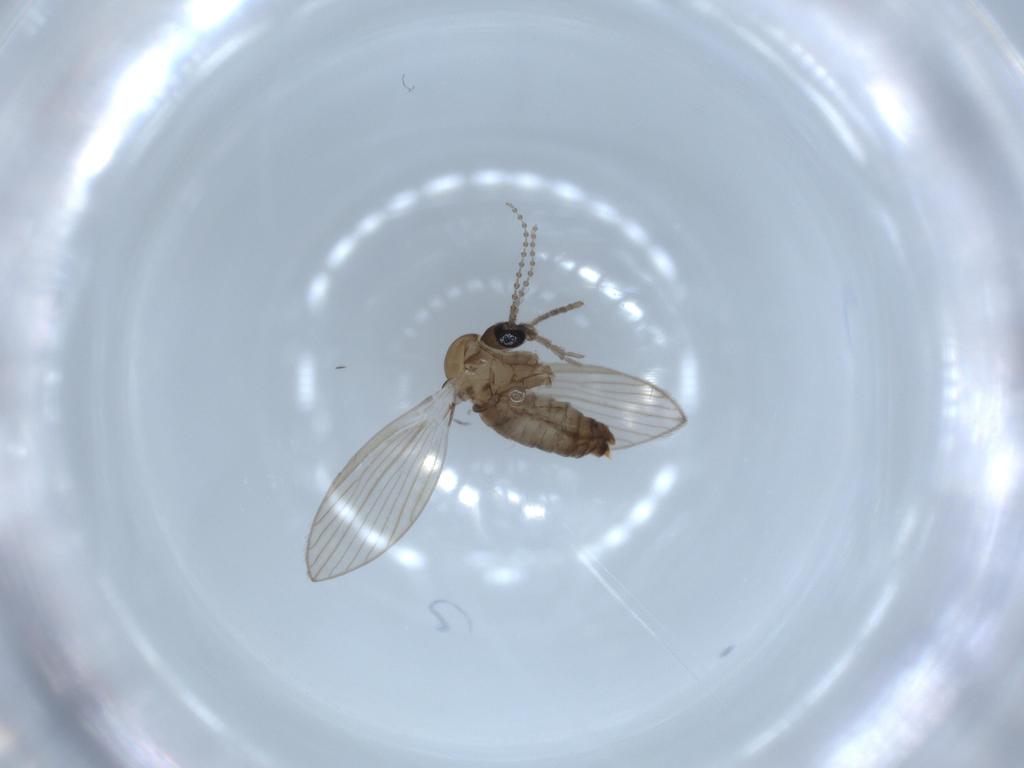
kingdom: Animalia
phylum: Arthropoda
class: Insecta
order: Diptera
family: Psychodidae
